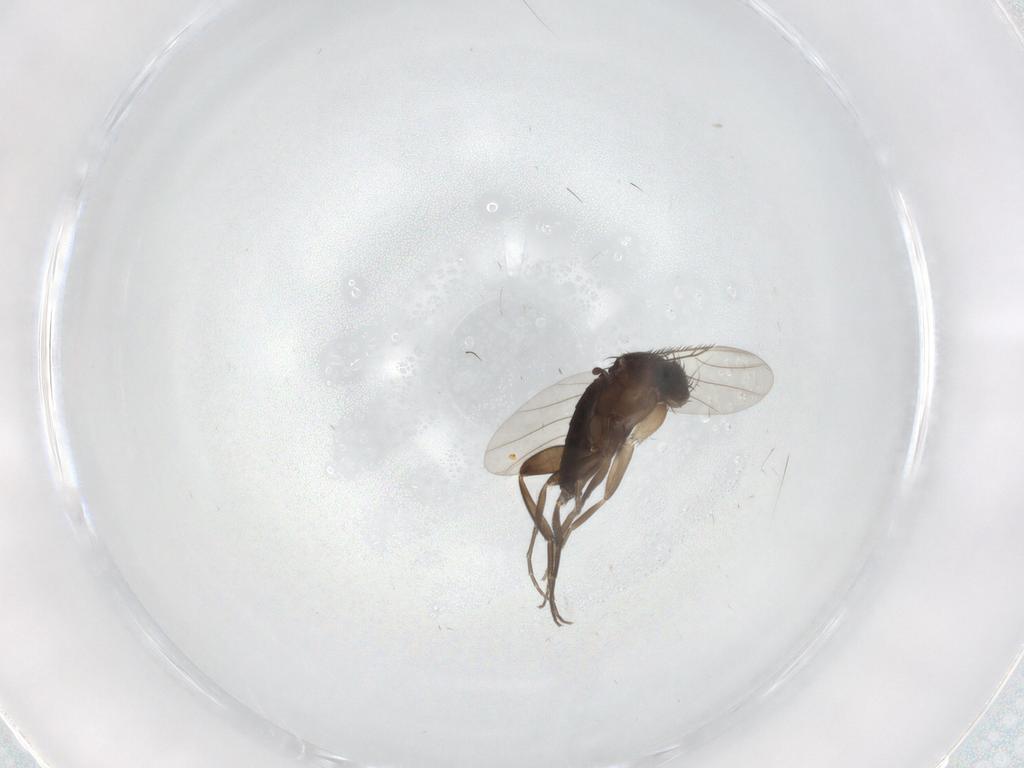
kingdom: Animalia
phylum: Arthropoda
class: Insecta
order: Diptera
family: Phoridae
